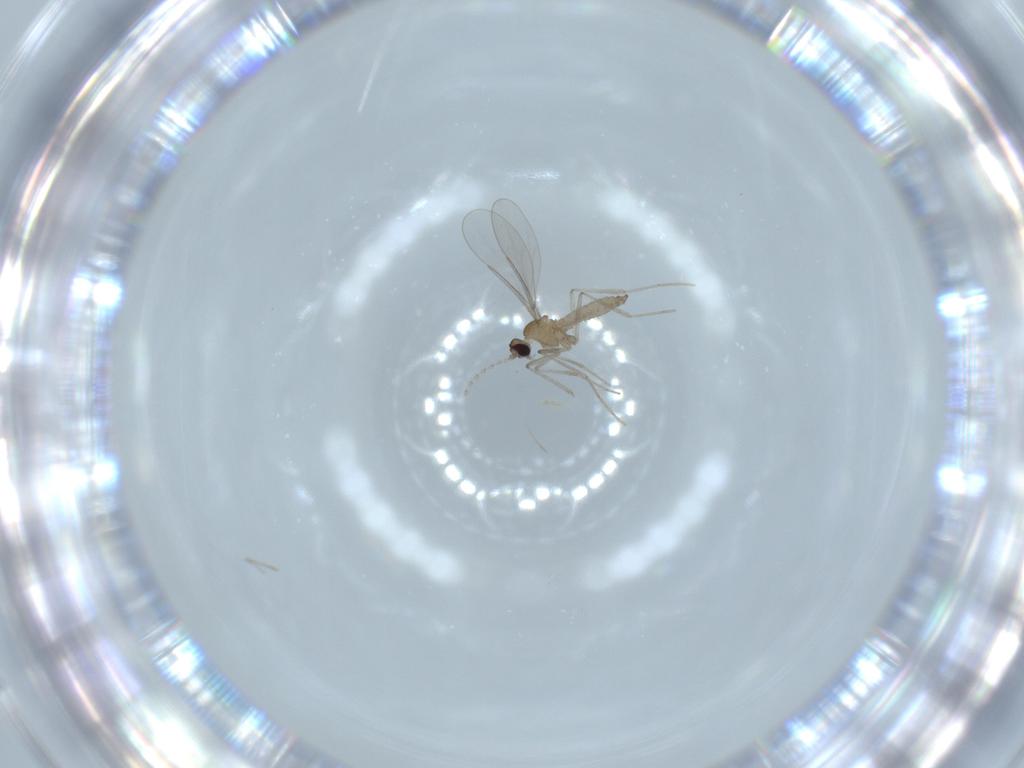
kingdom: Animalia
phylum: Arthropoda
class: Insecta
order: Diptera
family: Cecidomyiidae
